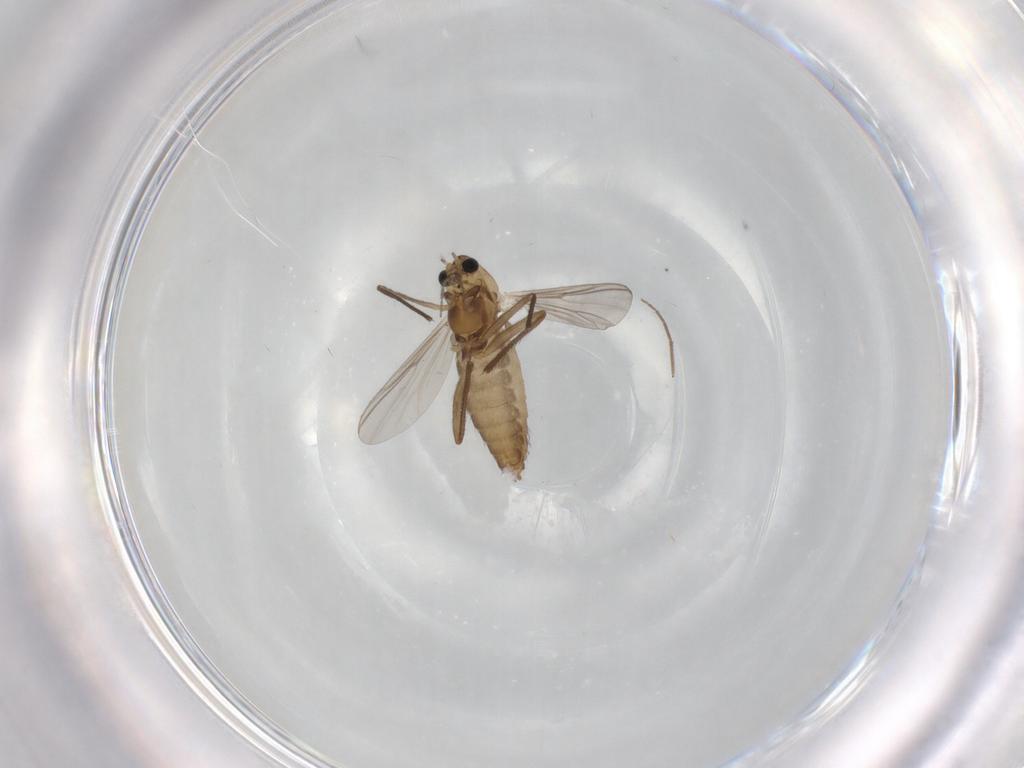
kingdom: Animalia
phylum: Arthropoda
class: Insecta
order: Diptera
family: Chironomidae
